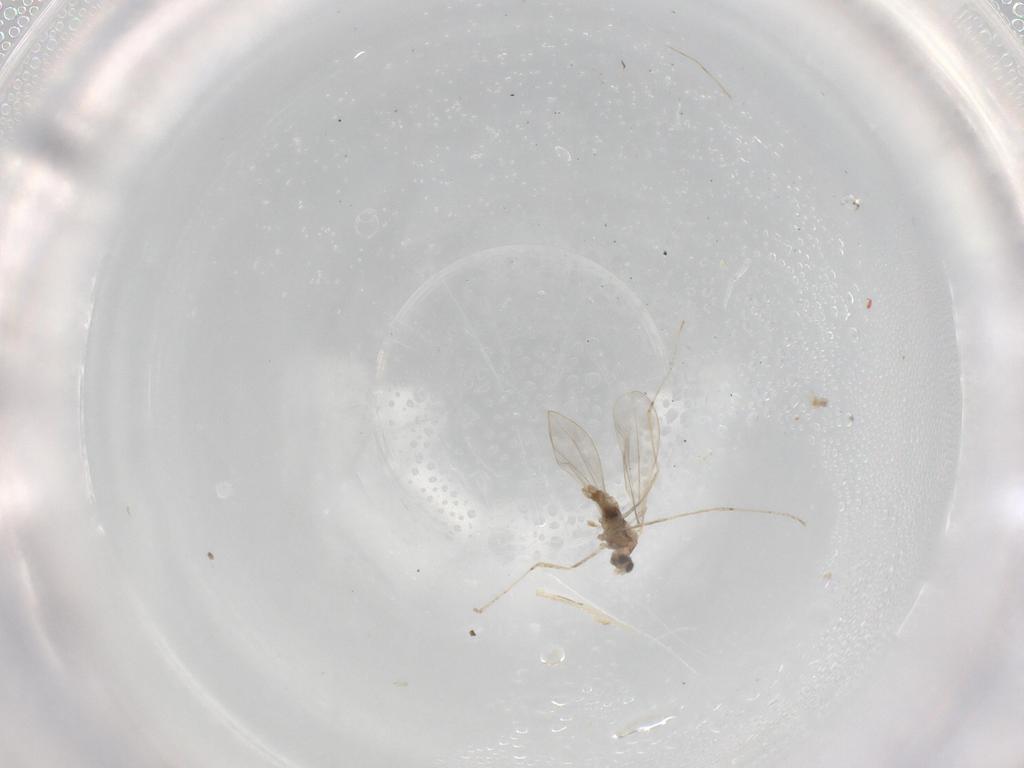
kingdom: Animalia
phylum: Arthropoda
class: Insecta
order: Diptera
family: Cecidomyiidae
